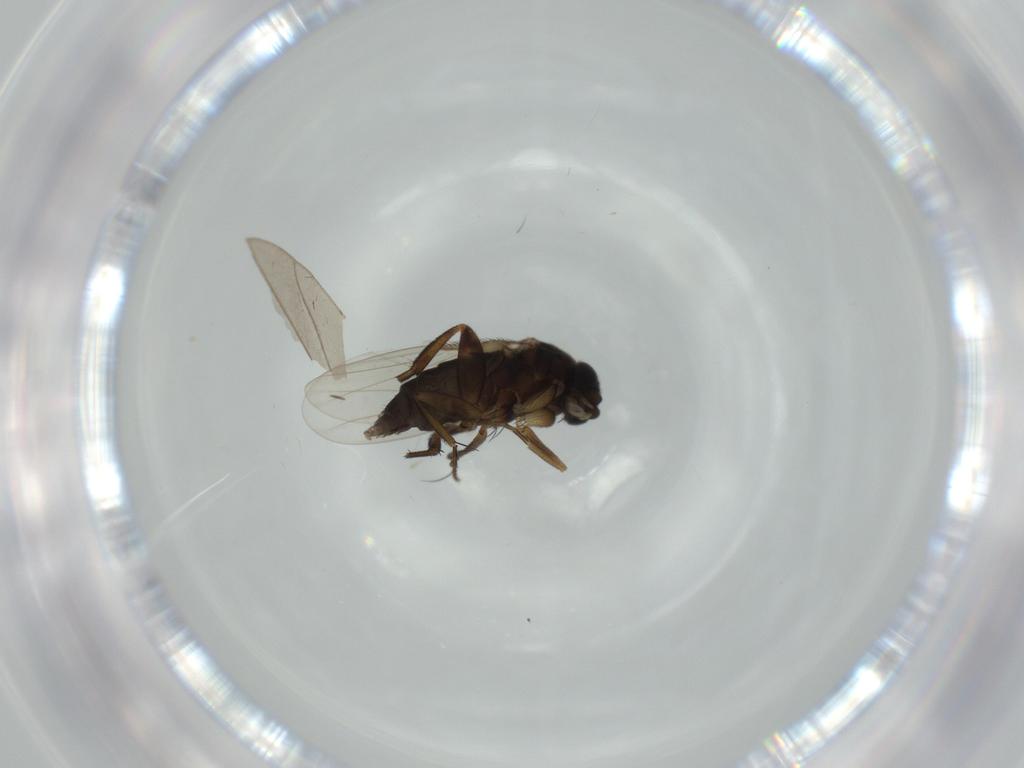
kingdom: Animalia
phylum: Arthropoda
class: Insecta
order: Diptera
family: Phoridae
